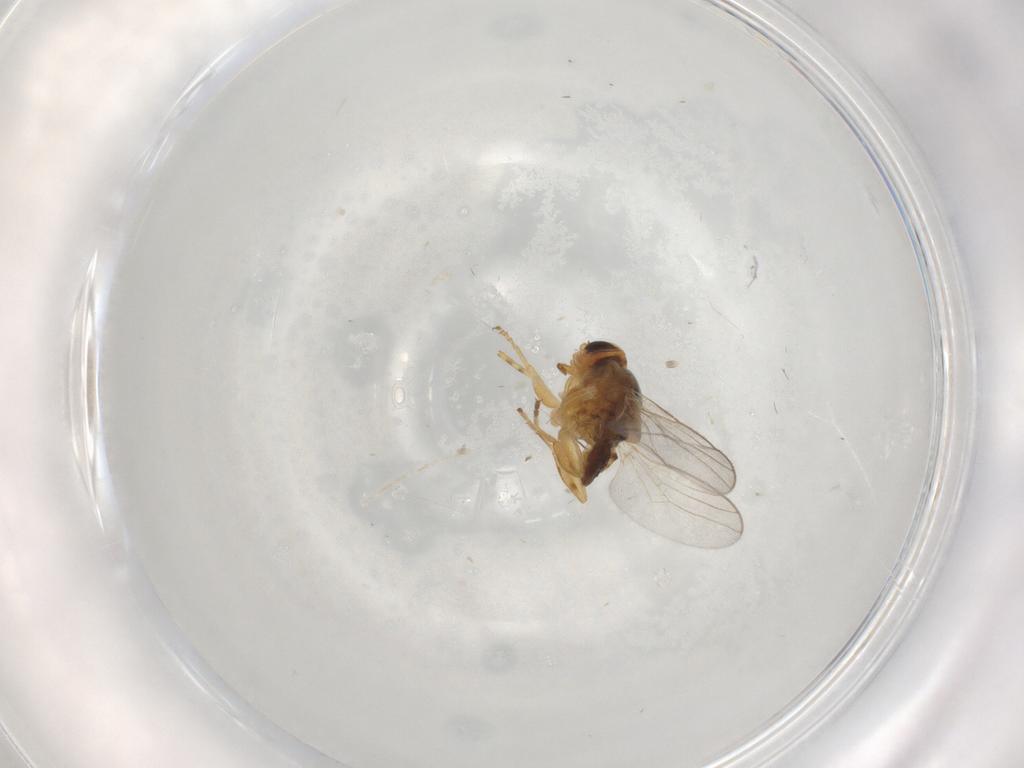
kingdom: Animalia
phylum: Arthropoda
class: Insecta
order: Diptera
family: Chloropidae
